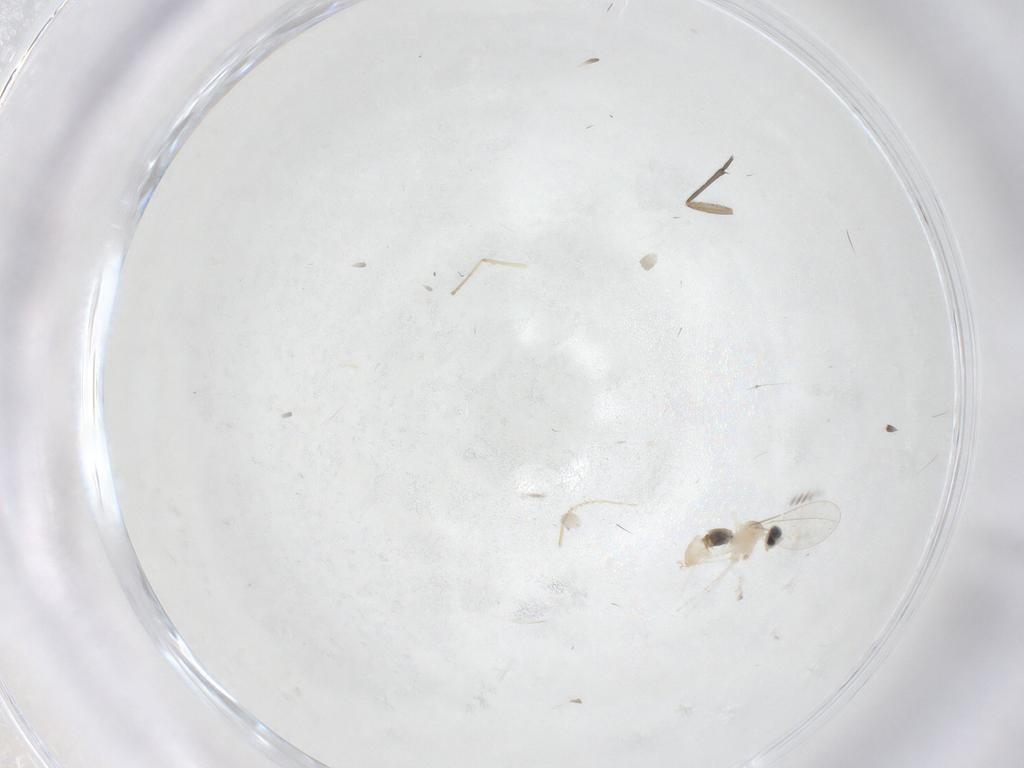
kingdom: Animalia
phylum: Arthropoda
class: Insecta
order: Diptera
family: Cecidomyiidae
